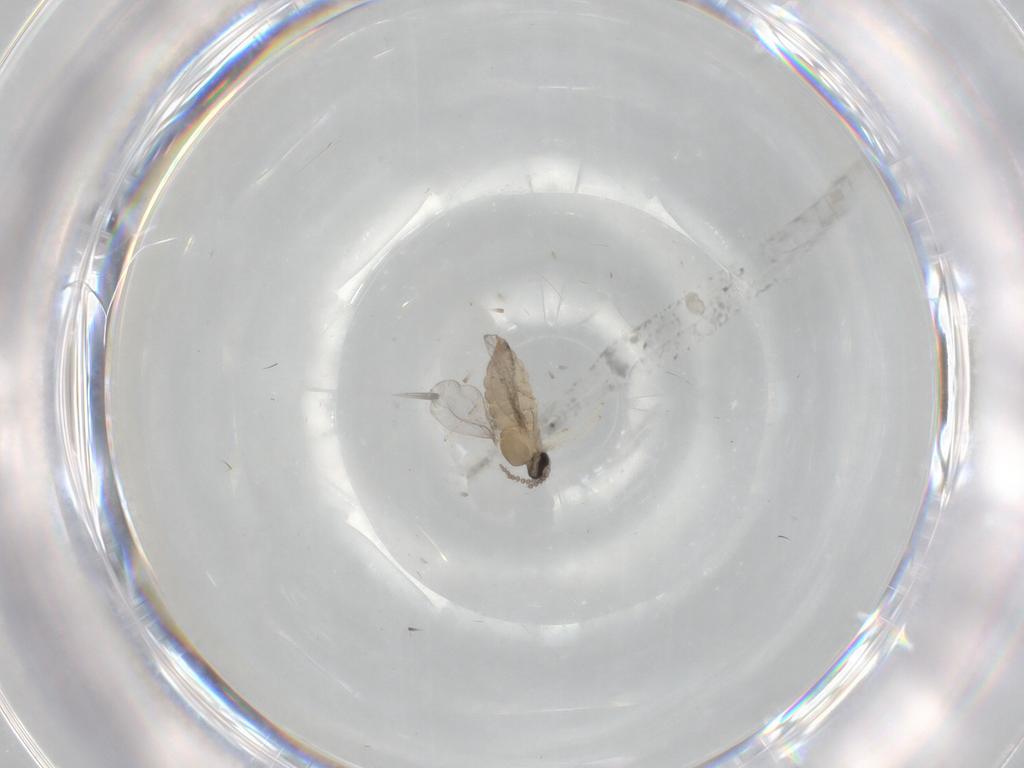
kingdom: Animalia
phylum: Arthropoda
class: Insecta
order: Diptera
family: Cecidomyiidae
